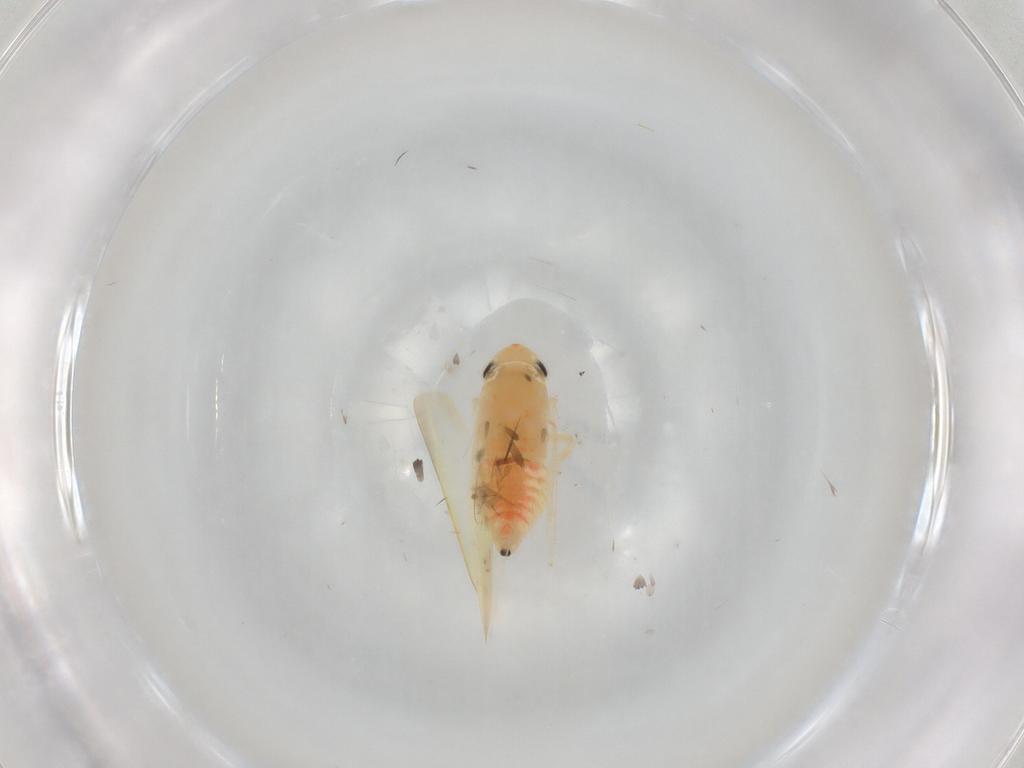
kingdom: Animalia
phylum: Arthropoda
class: Insecta
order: Hemiptera
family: Cicadellidae
